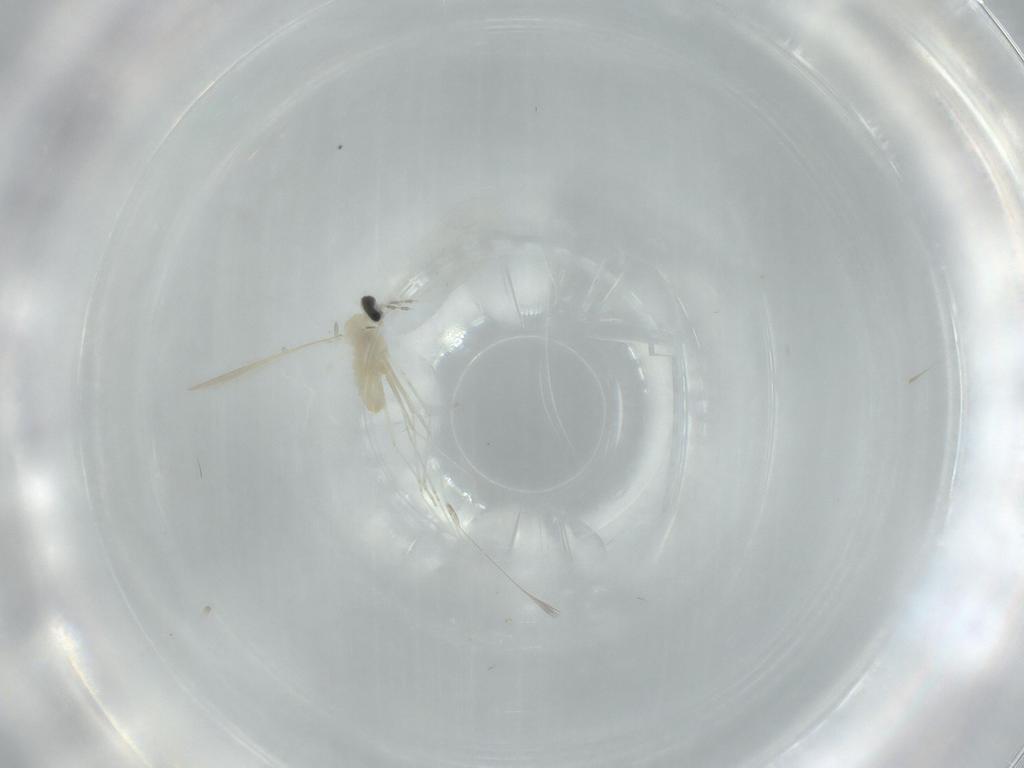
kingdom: Animalia
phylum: Arthropoda
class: Insecta
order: Diptera
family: Cecidomyiidae
